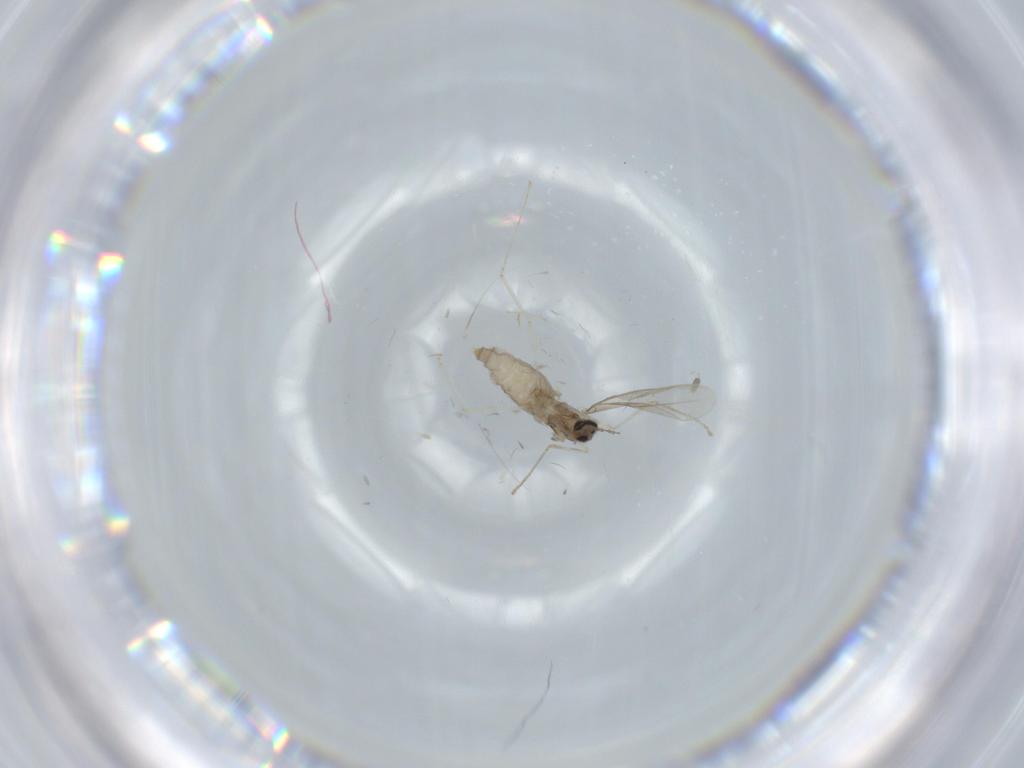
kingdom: Animalia
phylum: Arthropoda
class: Insecta
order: Diptera
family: Cecidomyiidae
